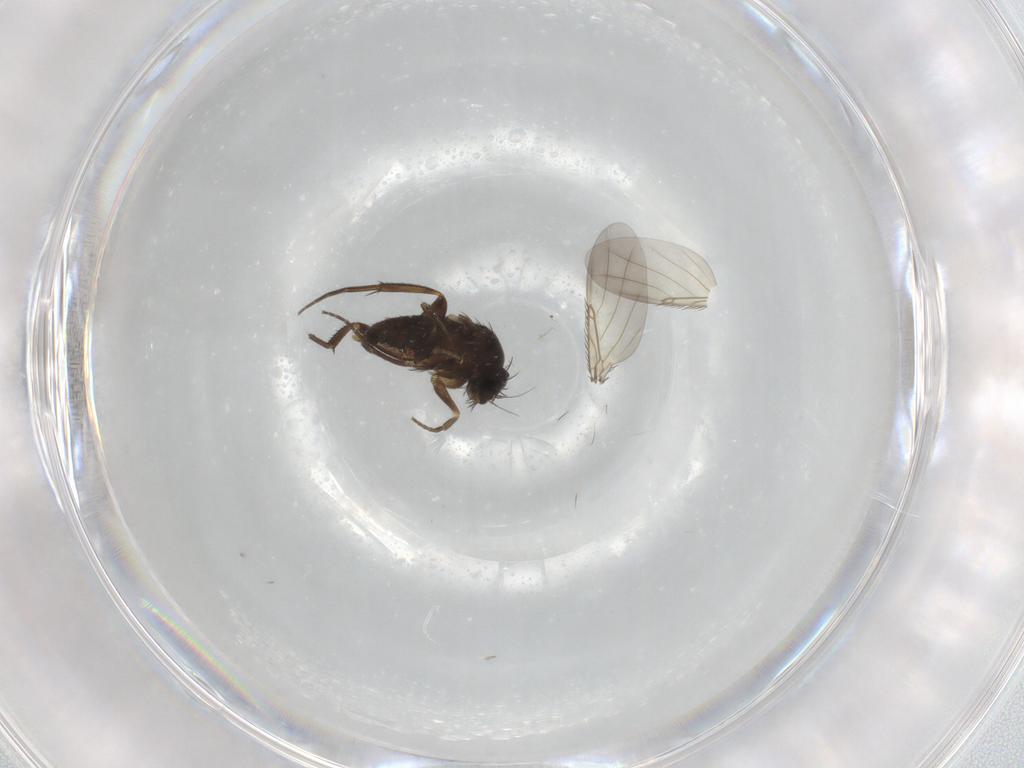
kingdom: Animalia
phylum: Arthropoda
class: Insecta
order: Diptera
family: Phoridae
